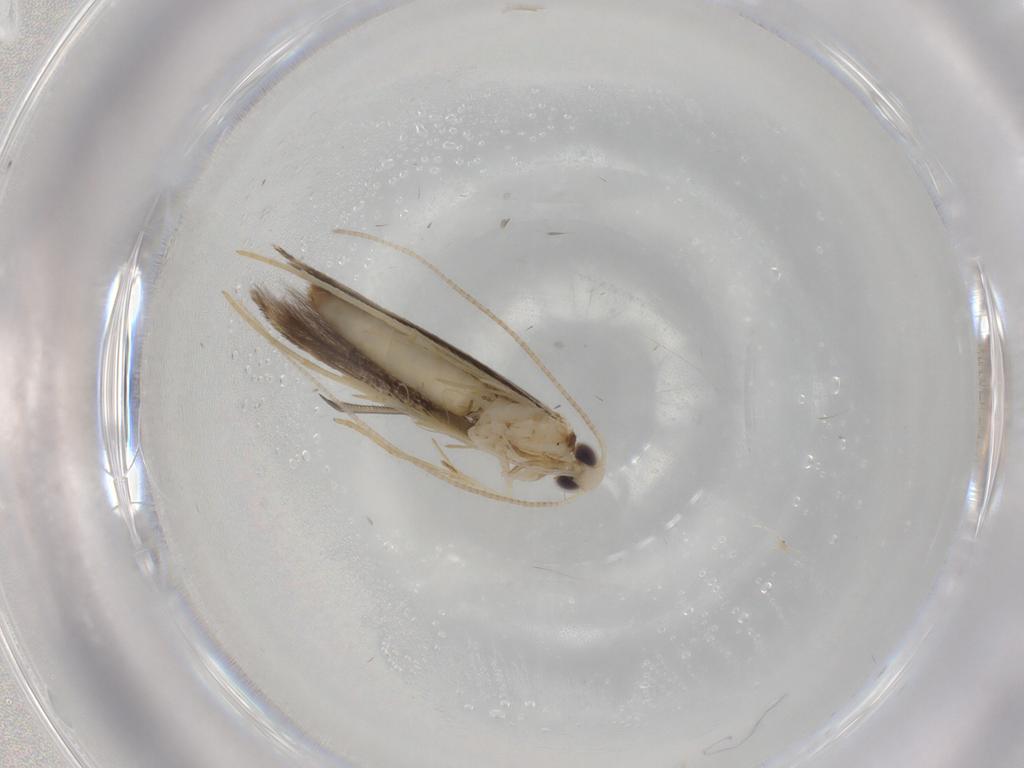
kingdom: Animalia
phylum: Arthropoda
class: Insecta
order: Lepidoptera
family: Gracillariidae
